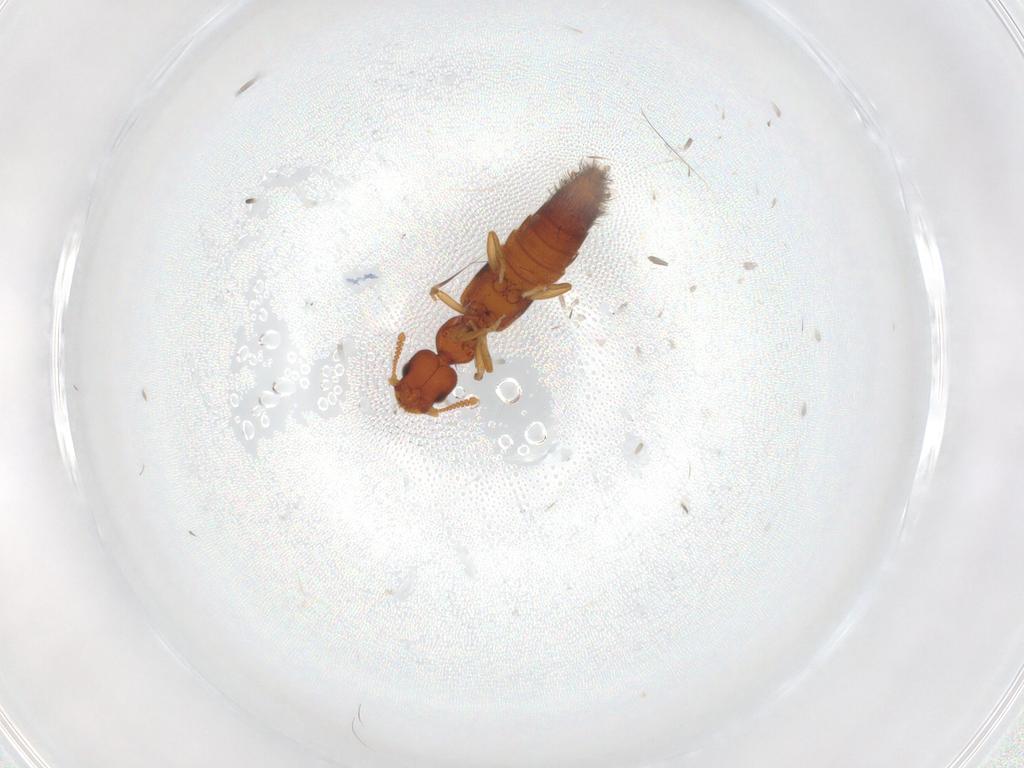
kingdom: Animalia
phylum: Arthropoda
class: Insecta
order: Coleoptera
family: Staphylinidae
